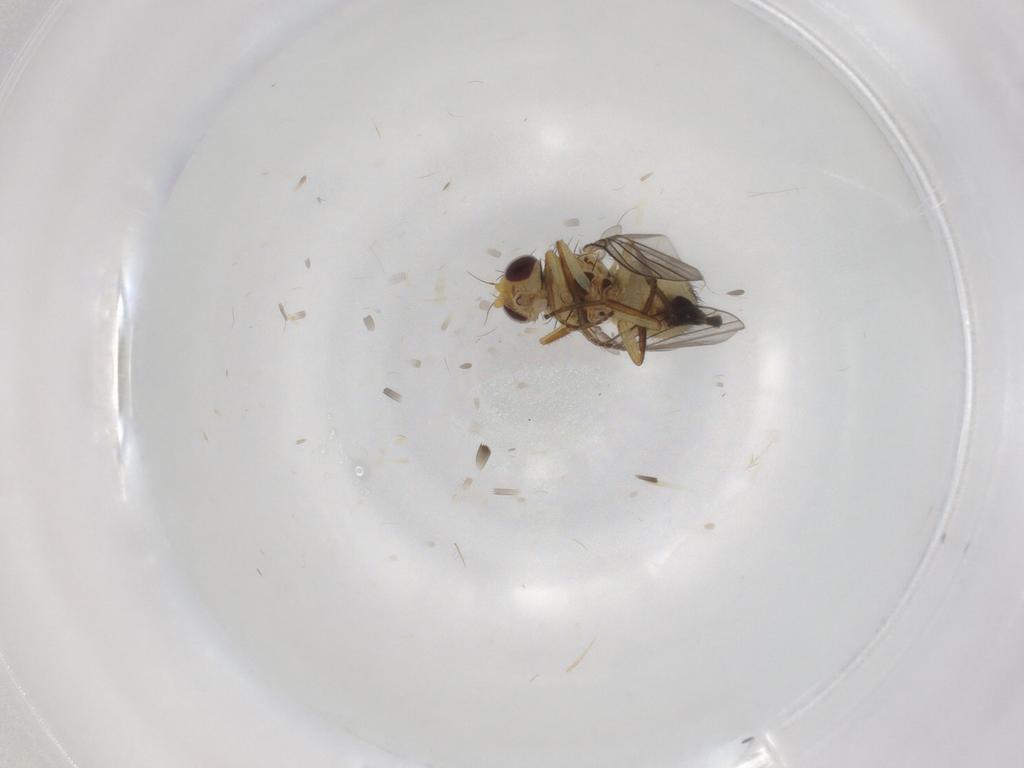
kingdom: Animalia
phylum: Arthropoda
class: Insecta
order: Diptera
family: Agromyzidae
